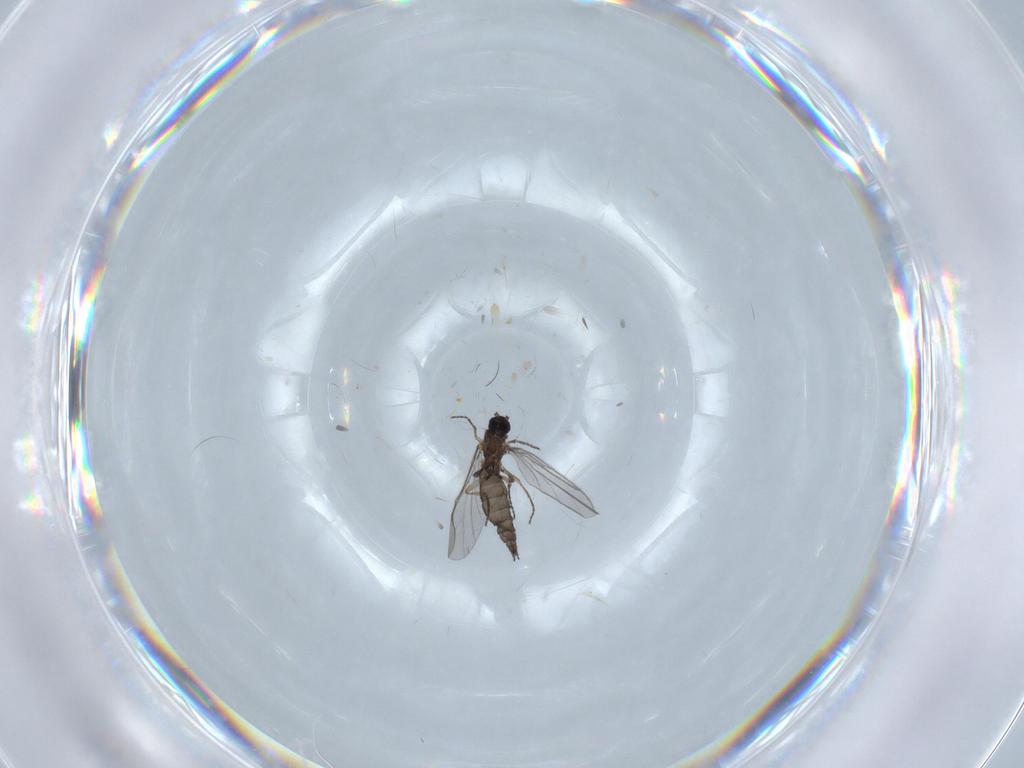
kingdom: Animalia
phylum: Arthropoda
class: Insecta
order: Diptera
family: Sciaridae
